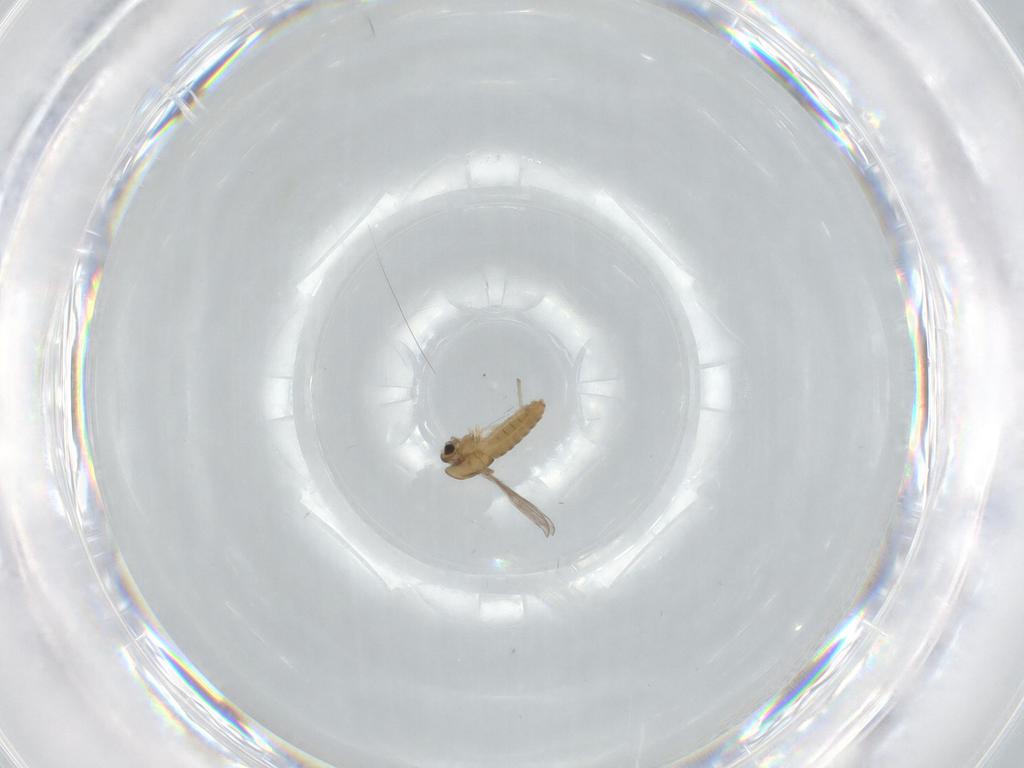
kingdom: Animalia
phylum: Arthropoda
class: Insecta
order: Diptera
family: Chironomidae
